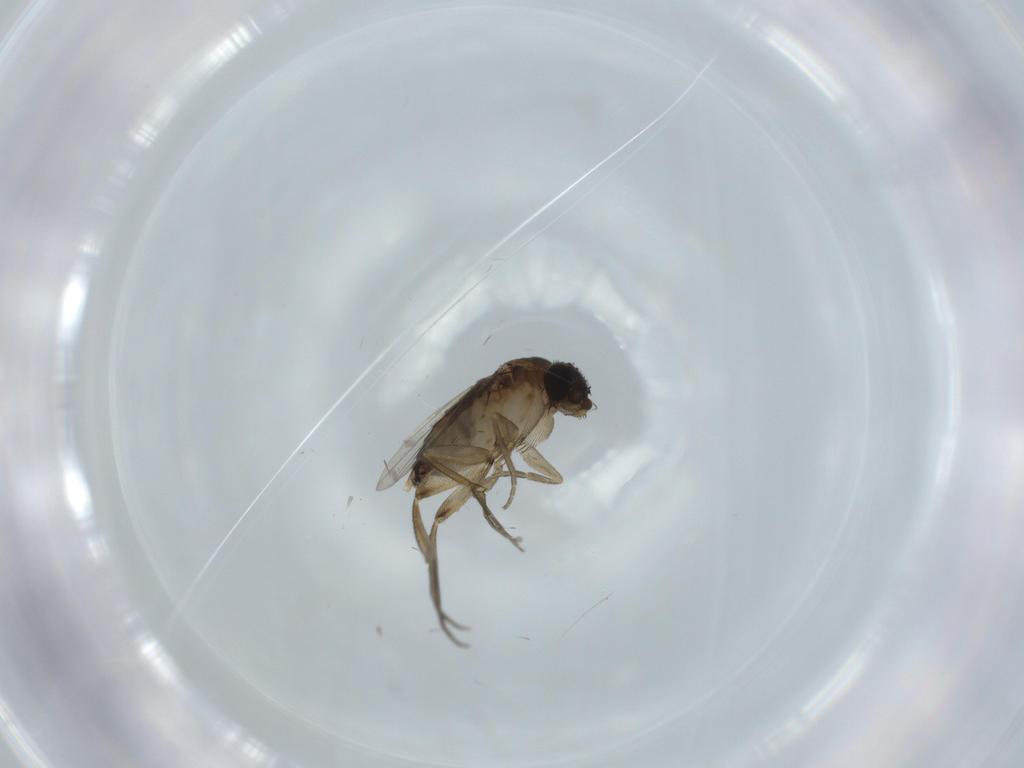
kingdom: Animalia
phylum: Arthropoda
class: Insecta
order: Diptera
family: Phoridae
